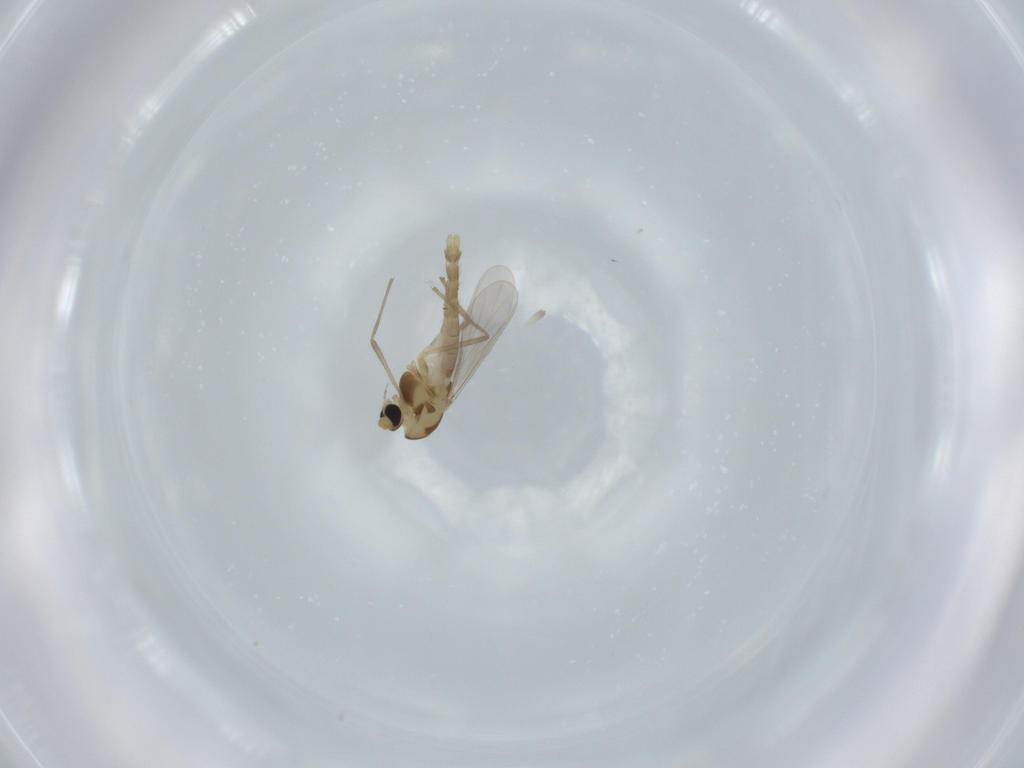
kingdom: Animalia
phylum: Arthropoda
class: Insecta
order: Diptera
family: Chironomidae
